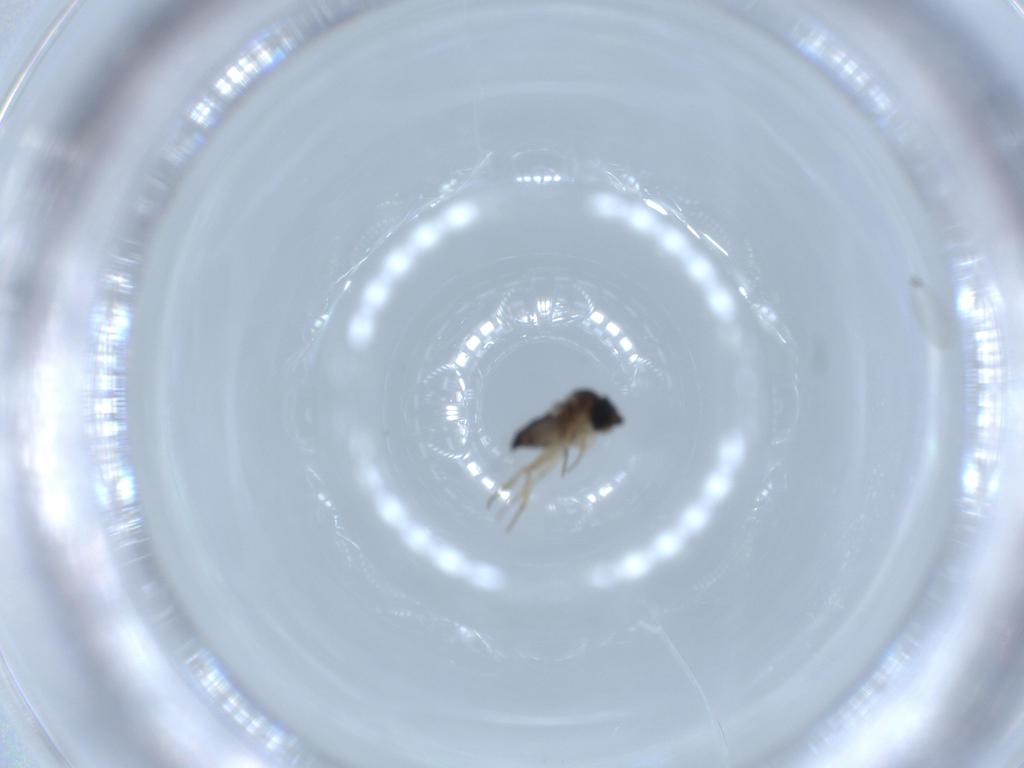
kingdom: Animalia
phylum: Arthropoda
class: Insecta
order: Diptera
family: Phoridae
